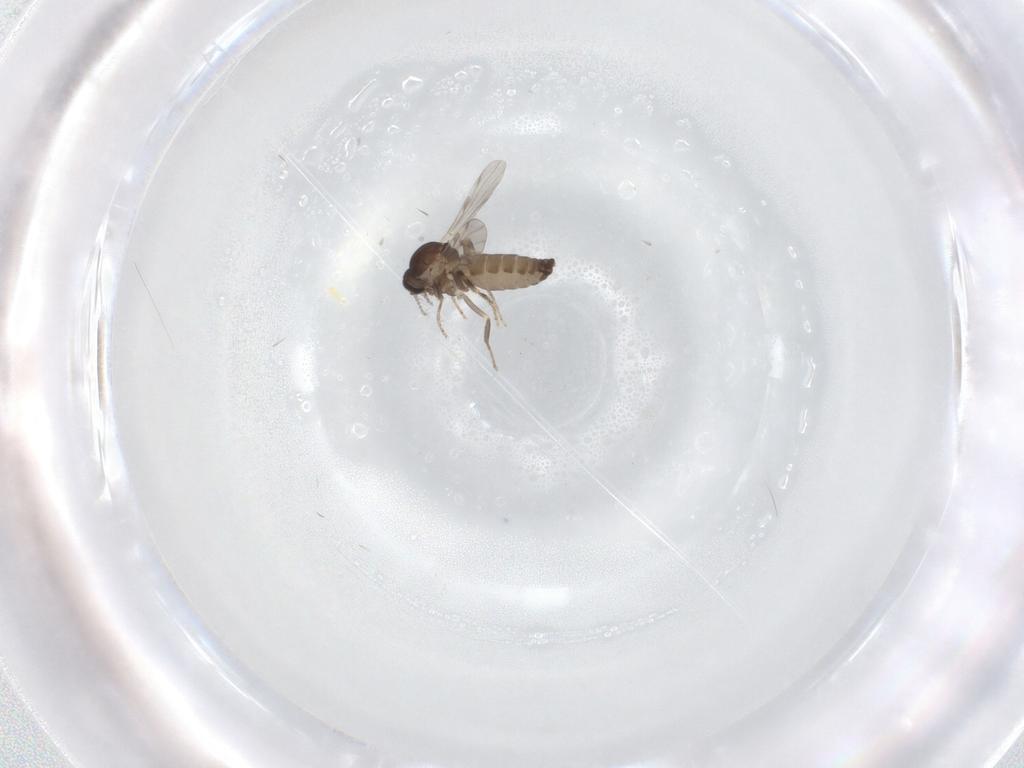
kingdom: Animalia
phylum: Arthropoda
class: Insecta
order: Diptera
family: Ceratopogonidae
